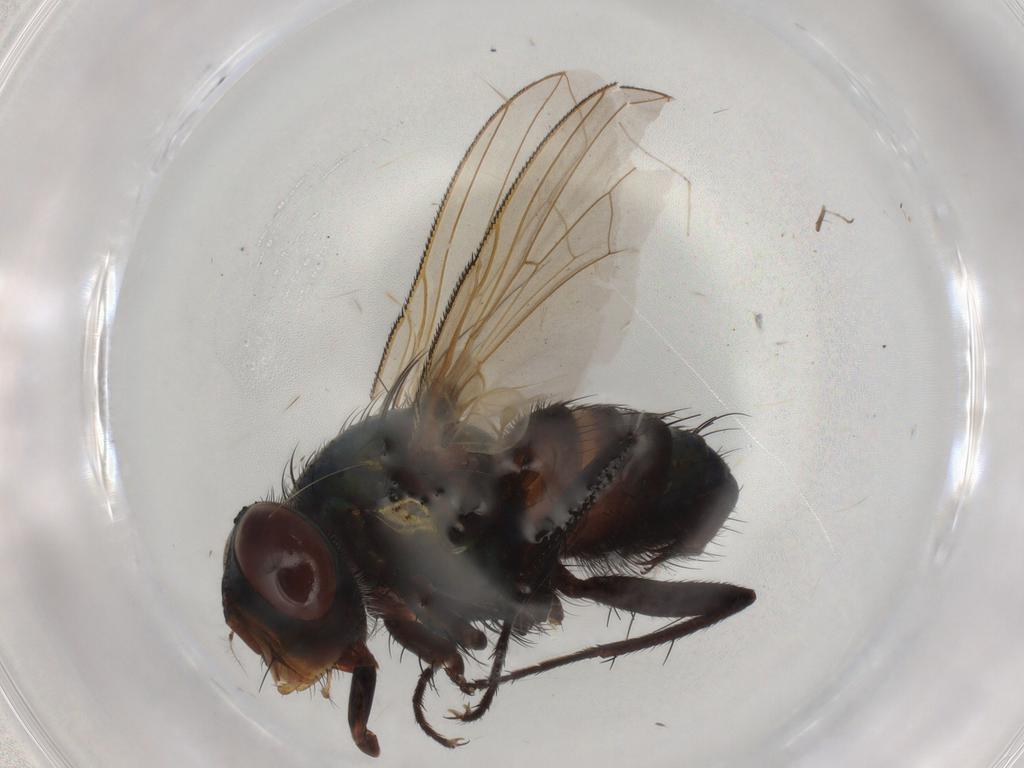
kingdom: Animalia
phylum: Arthropoda
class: Insecta
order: Diptera
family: Calliphoridae
